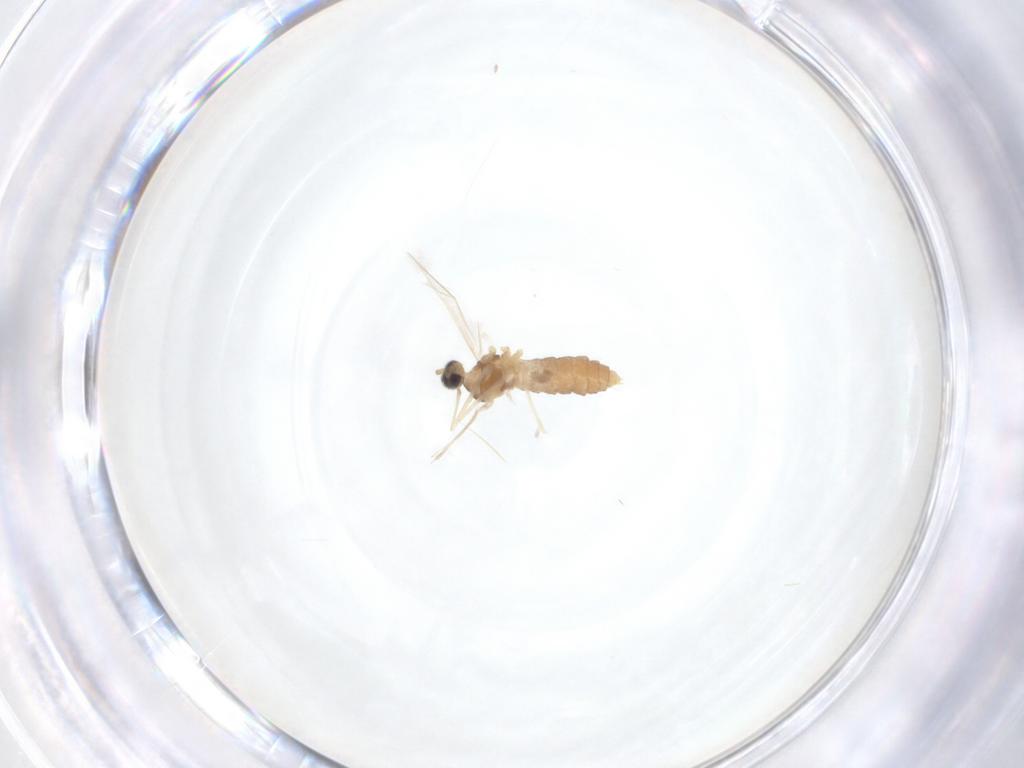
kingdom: Animalia
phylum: Arthropoda
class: Insecta
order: Diptera
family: Cecidomyiidae
